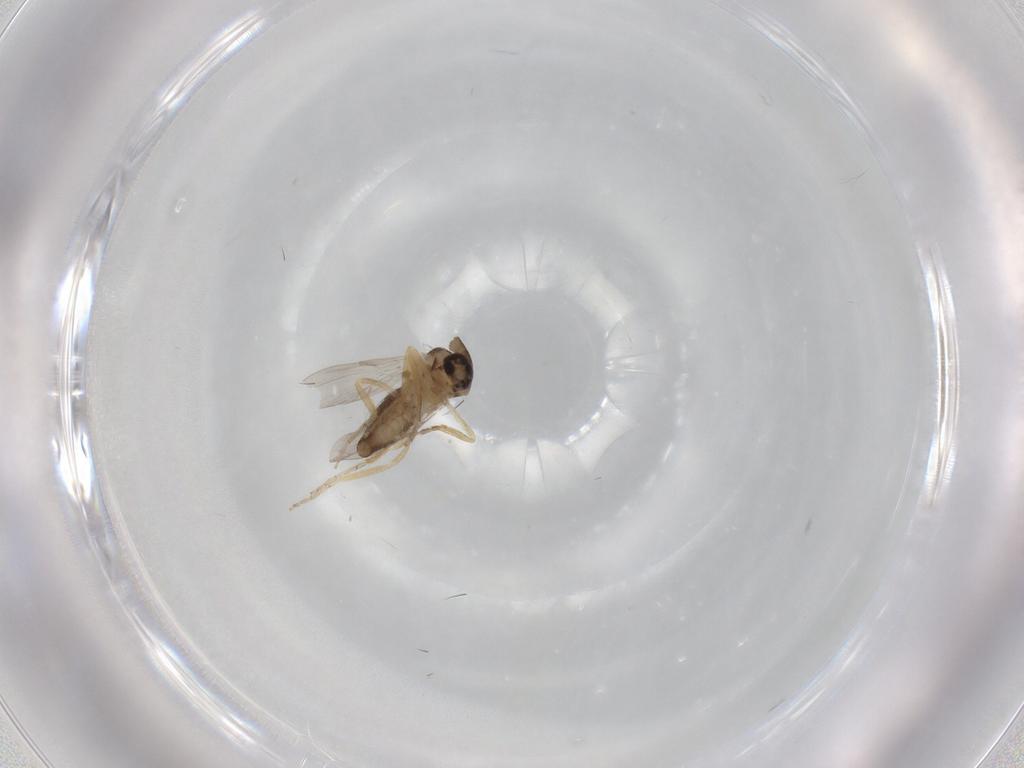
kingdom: Animalia
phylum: Arthropoda
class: Insecta
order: Diptera
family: Ceratopogonidae
